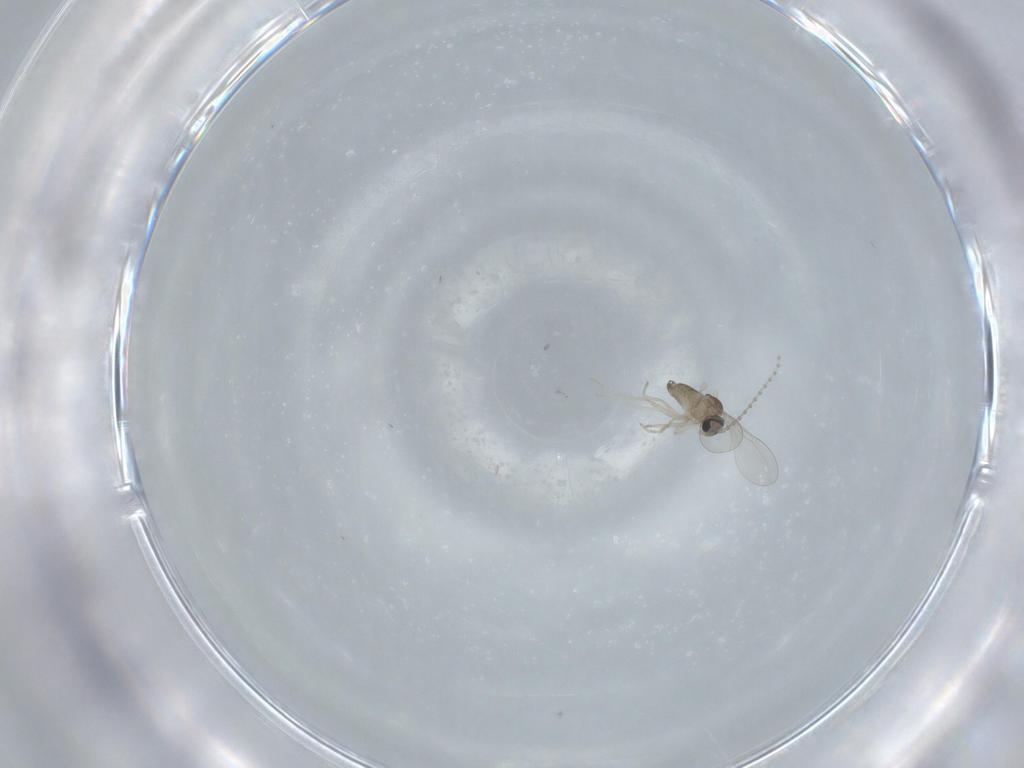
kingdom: Animalia
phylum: Arthropoda
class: Insecta
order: Diptera
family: Cecidomyiidae
